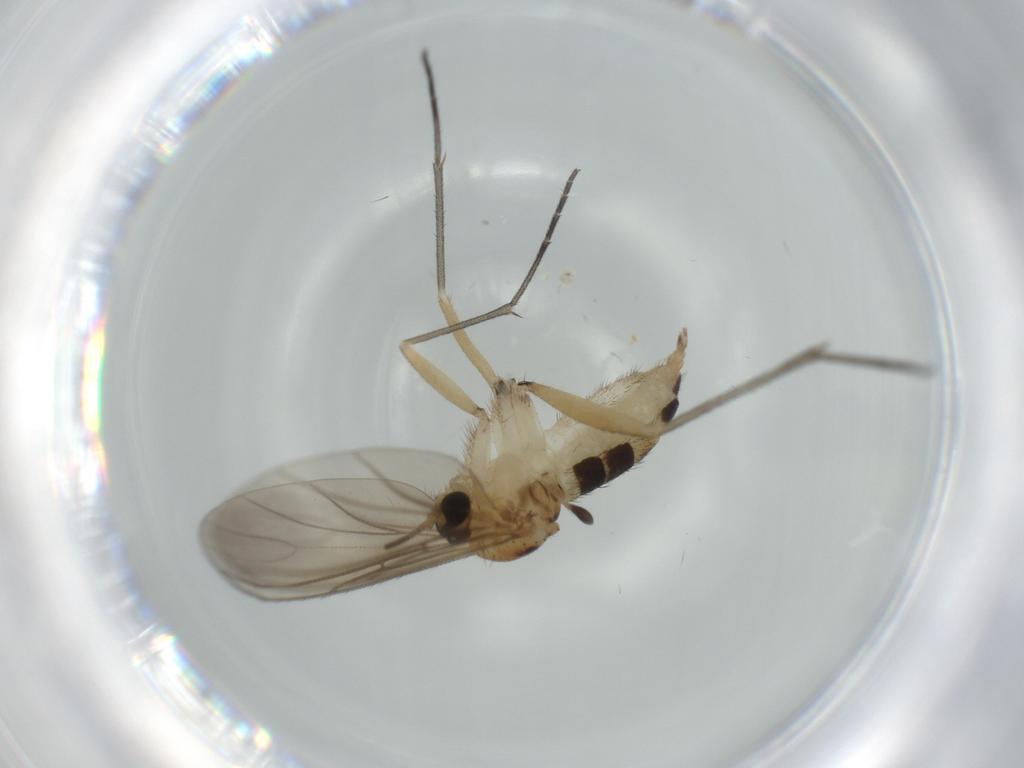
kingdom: Animalia
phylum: Arthropoda
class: Insecta
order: Diptera
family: Sciaridae
